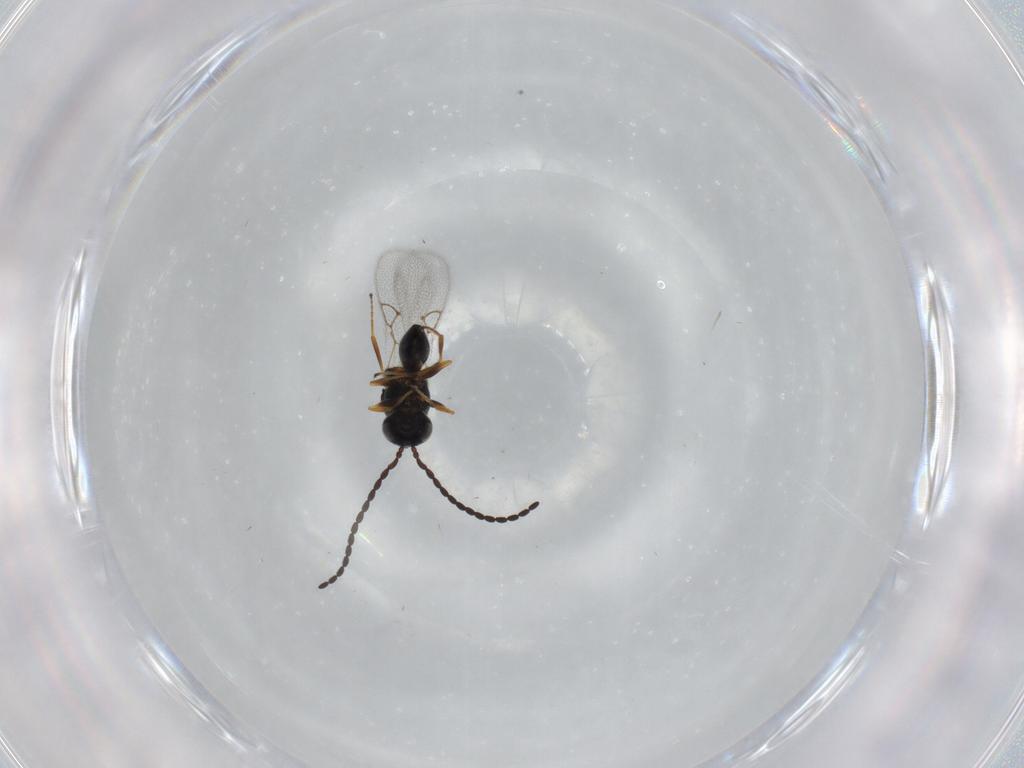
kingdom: Animalia
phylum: Arthropoda
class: Insecta
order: Hymenoptera
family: Figitidae
